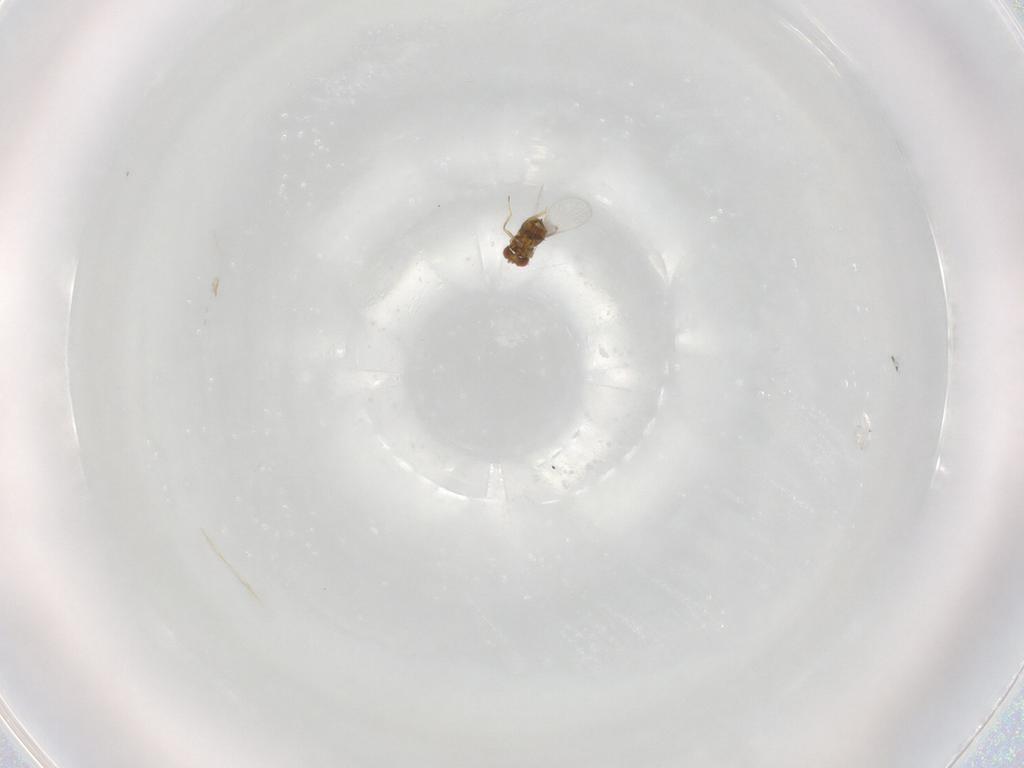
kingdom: Animalia
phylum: Arthropoda
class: Insecta
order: Hymenoptera
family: Trichogrammatidae
